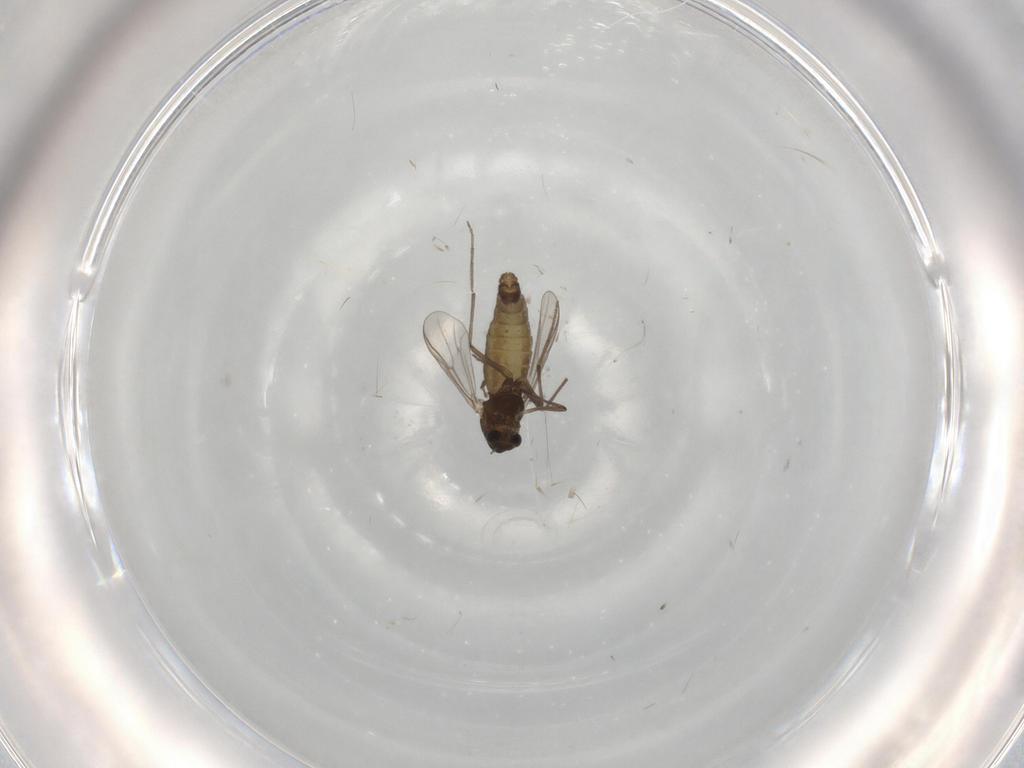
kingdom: Animalia
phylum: Arthropoda
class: Insecta
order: Diptera
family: Chironomidae
